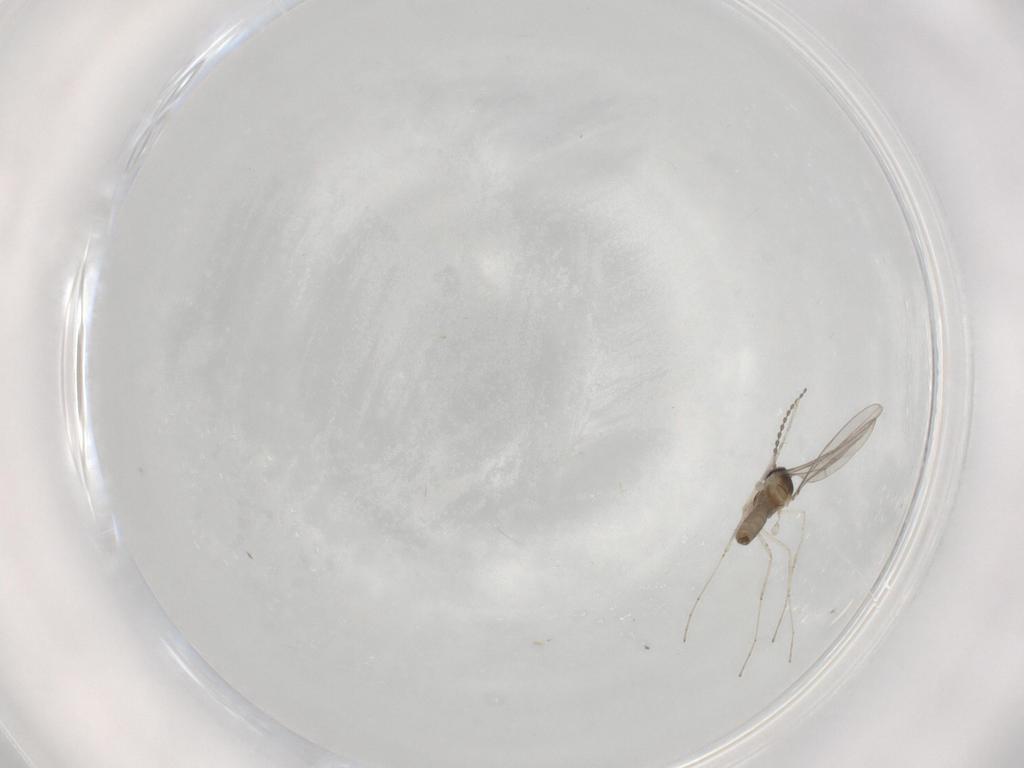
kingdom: Animalia
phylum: Arthropoda
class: Insecta
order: Diptera
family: Cecidomyiidae
